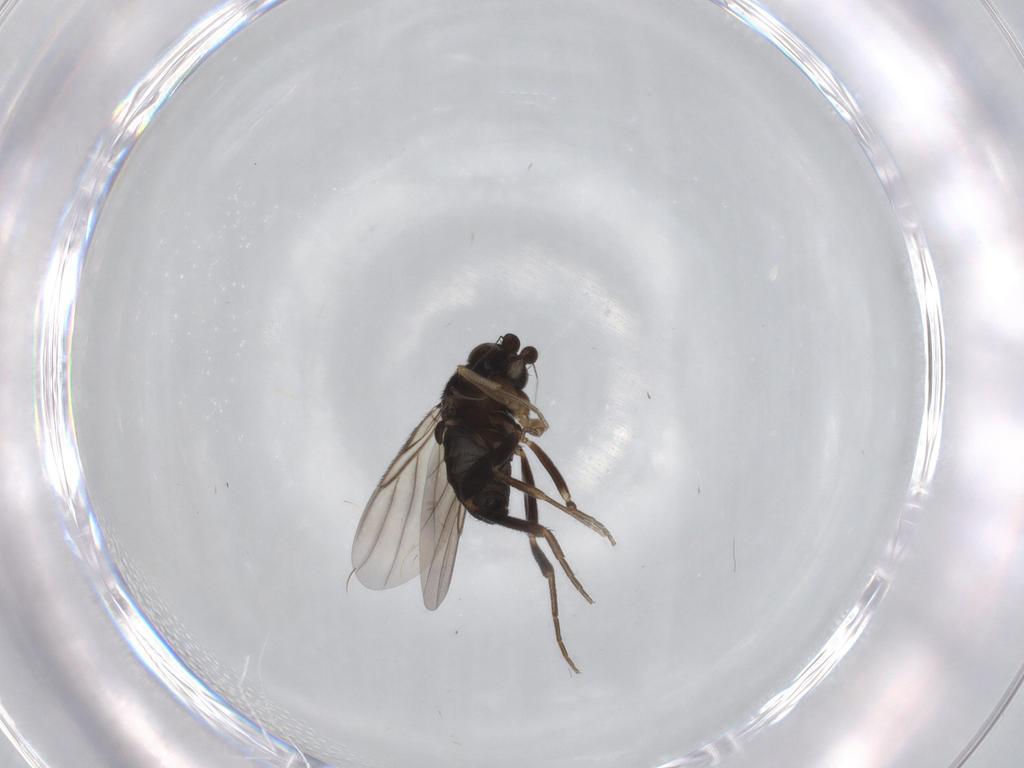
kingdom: Animalia
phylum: Arthropoda
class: Insecta
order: Diptera
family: Phoridae
